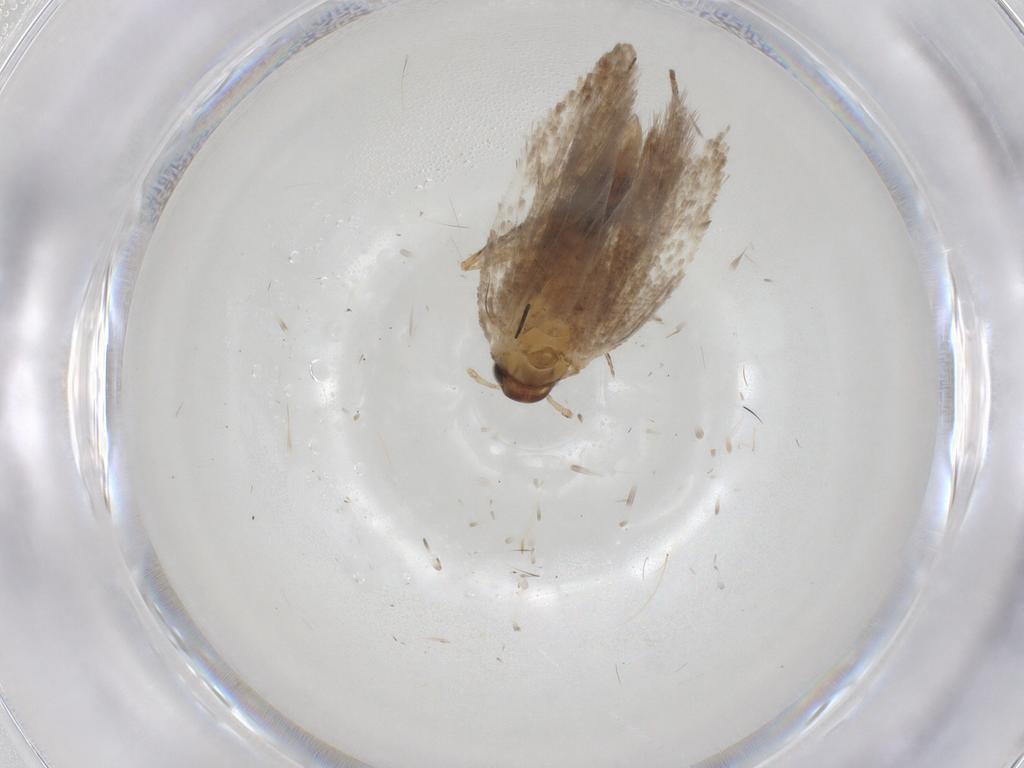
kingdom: Animalia
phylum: Arthropoda
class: Insecta
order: Lepidoptera
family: Gelechiidae
